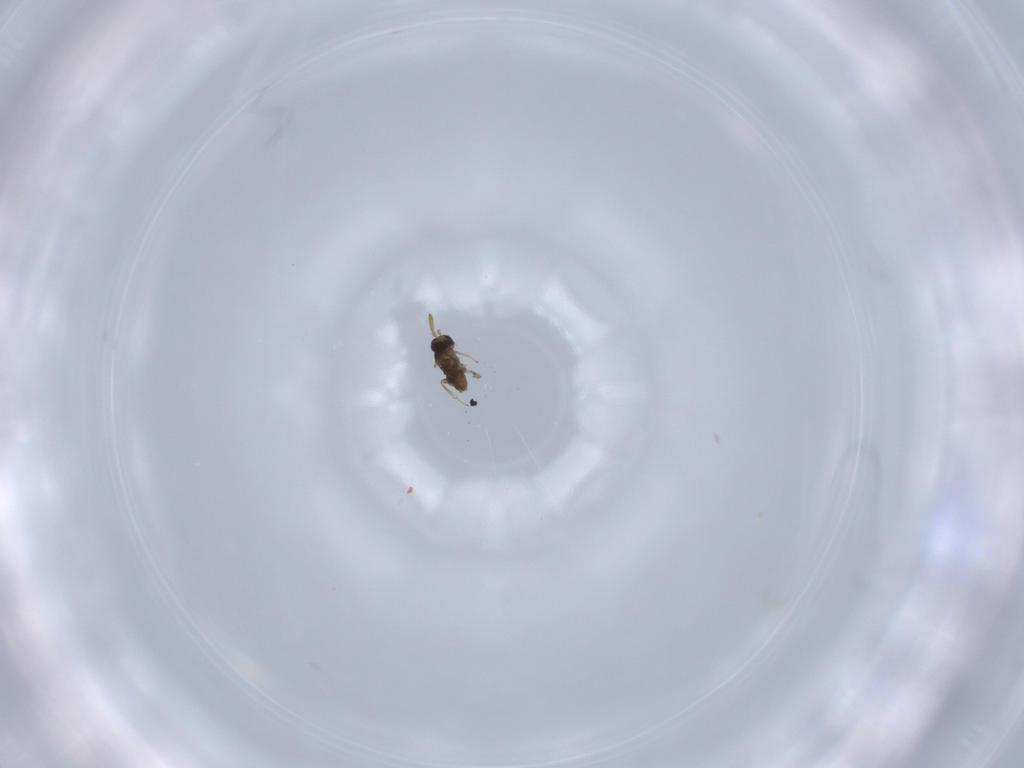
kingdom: Animalia
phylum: Arthropoda
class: Insecta
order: Hymenoptera
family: Encyrtidae
